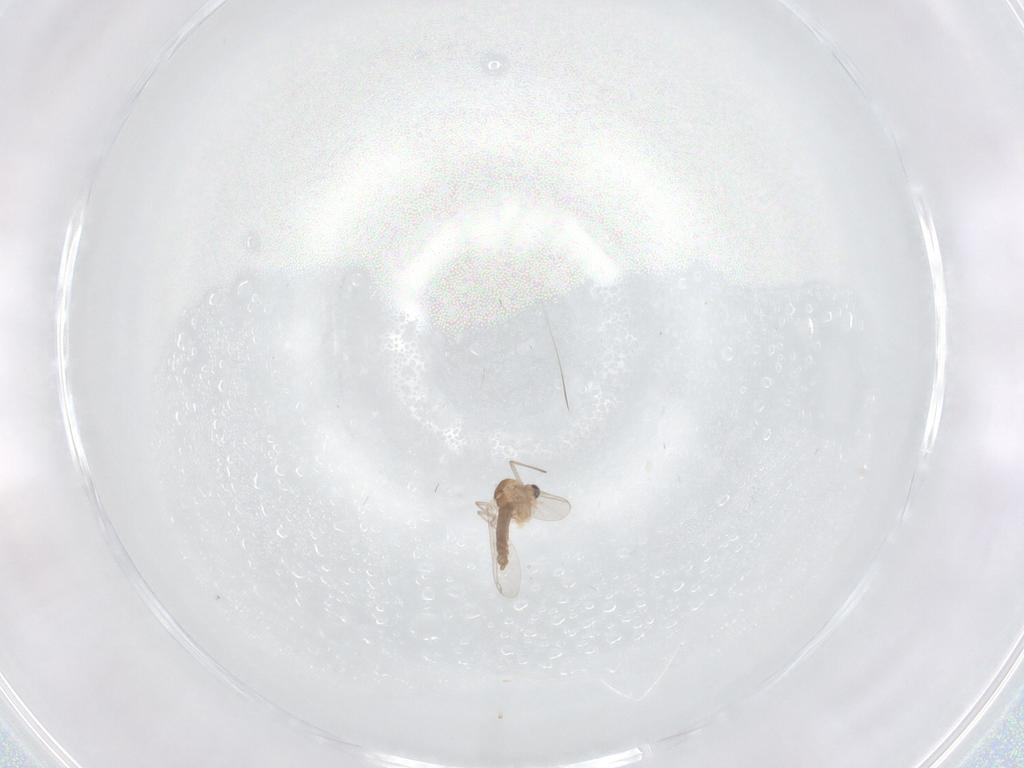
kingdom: Animalia
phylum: Arthropoda
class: Insecta
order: Diptera
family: Chironomidae
